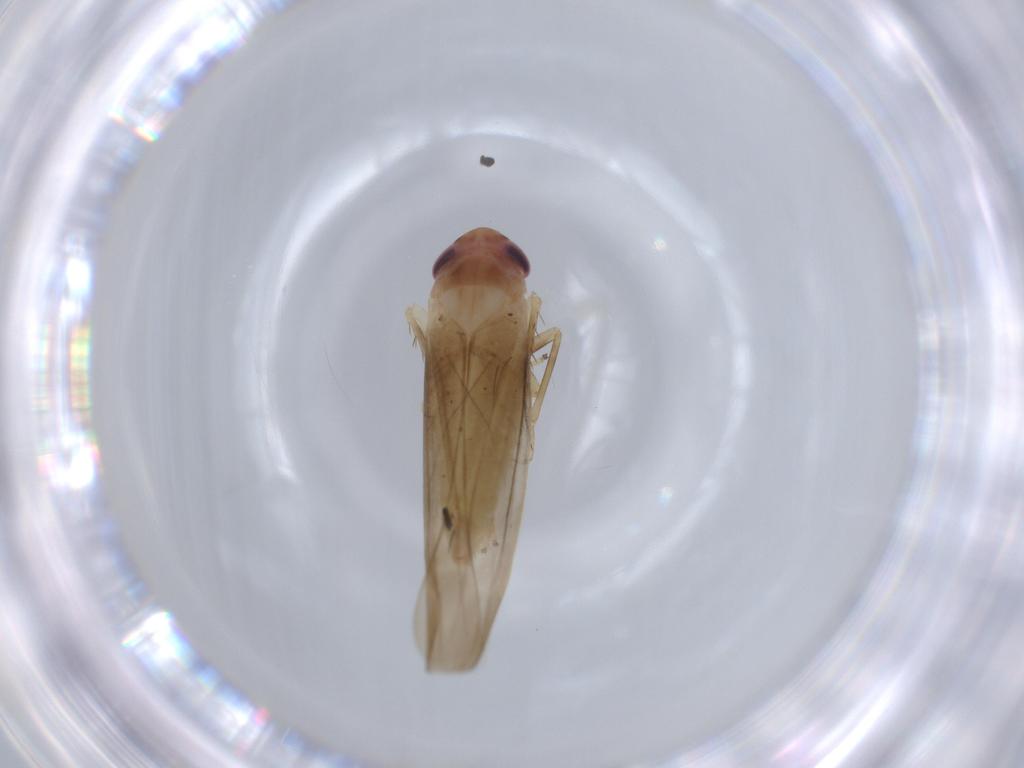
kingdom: Animalia
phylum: Arthropoda
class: Insecta
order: Hemiptera
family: Cicadellidae
